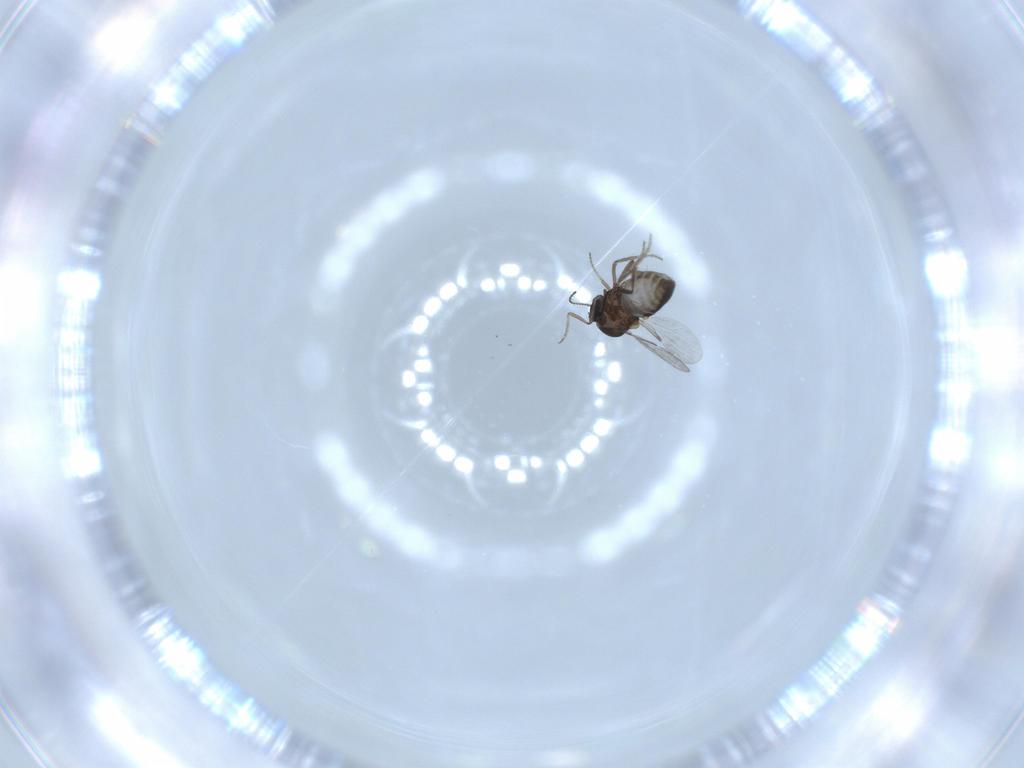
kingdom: Animalia
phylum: Arthropoda
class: Insecta
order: Diptera
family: Ceratopogonidae
